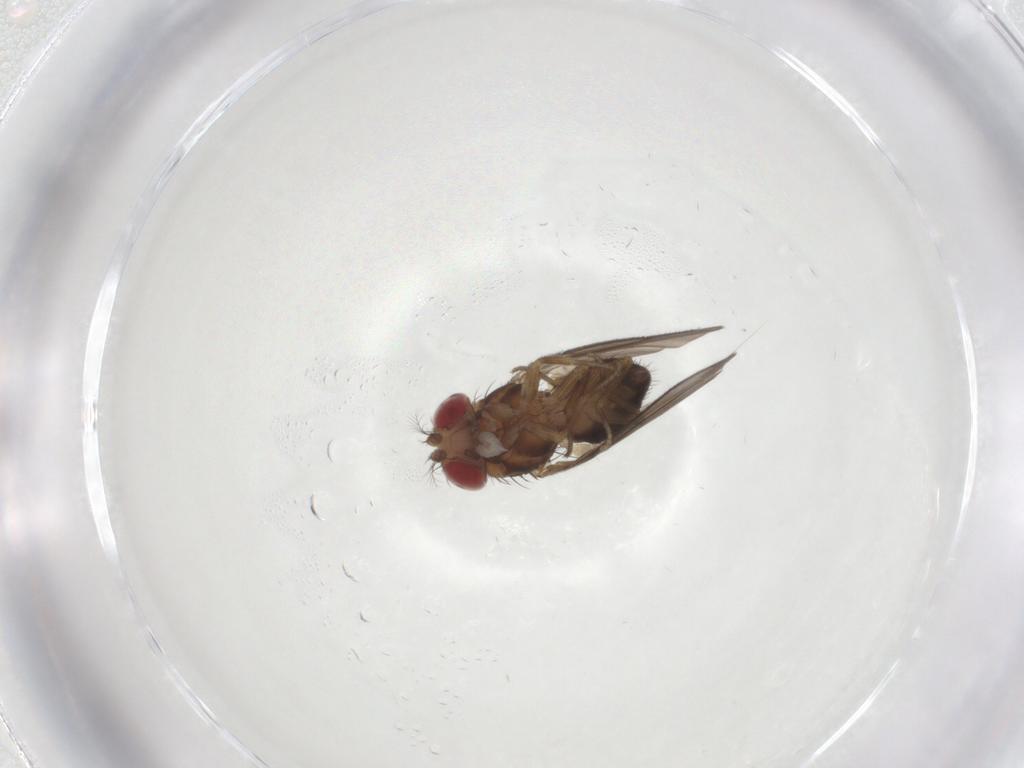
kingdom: Animalia
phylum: Arthropoda
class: Insecta
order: Diptera
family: Drosophilidae
